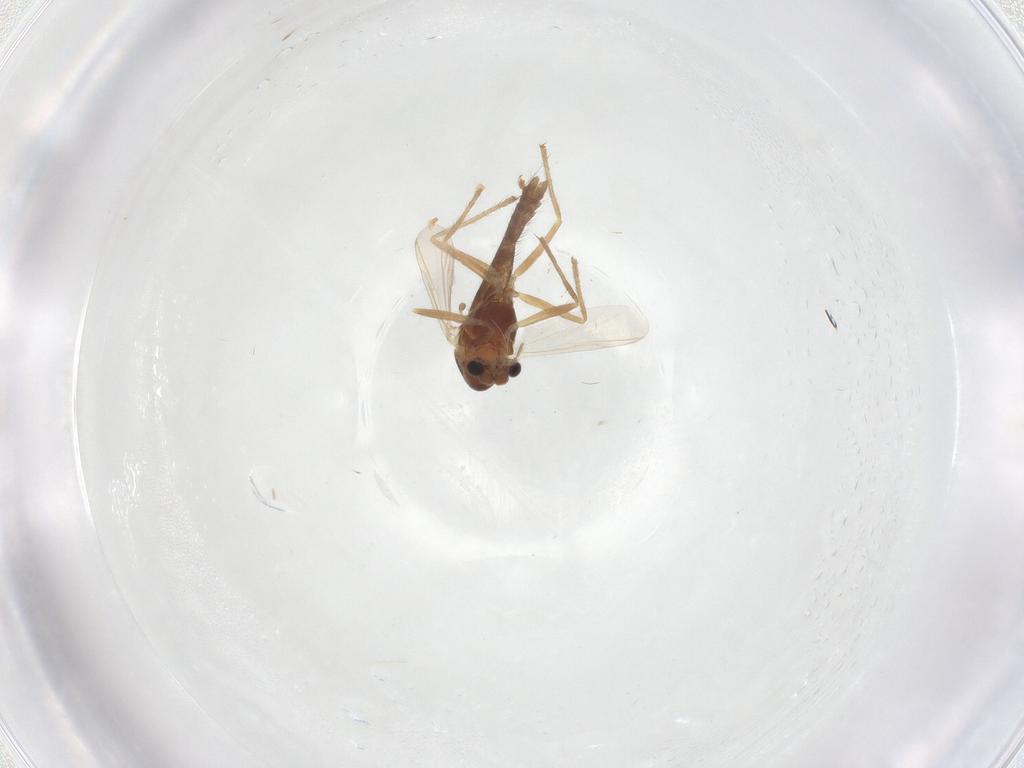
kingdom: Animalia
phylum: Arthropoda
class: Insecta
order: Diptera
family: Chironomidae
